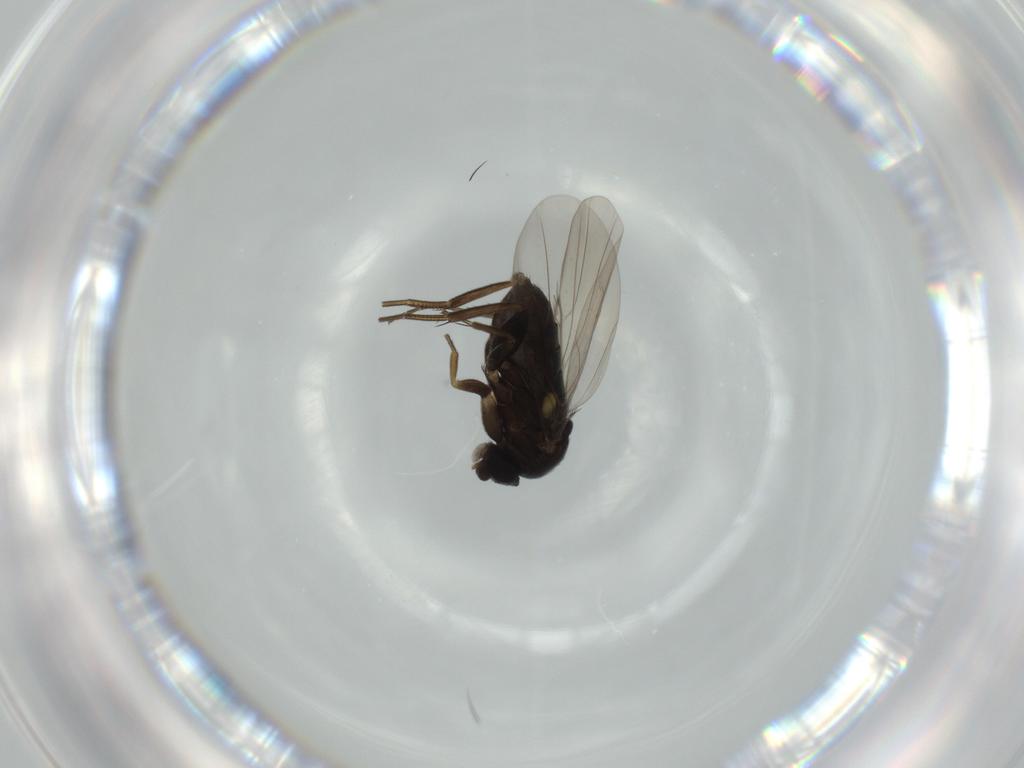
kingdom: Animalia
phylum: Arthropoda
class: Insecta
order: Diptera
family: Phoridae
